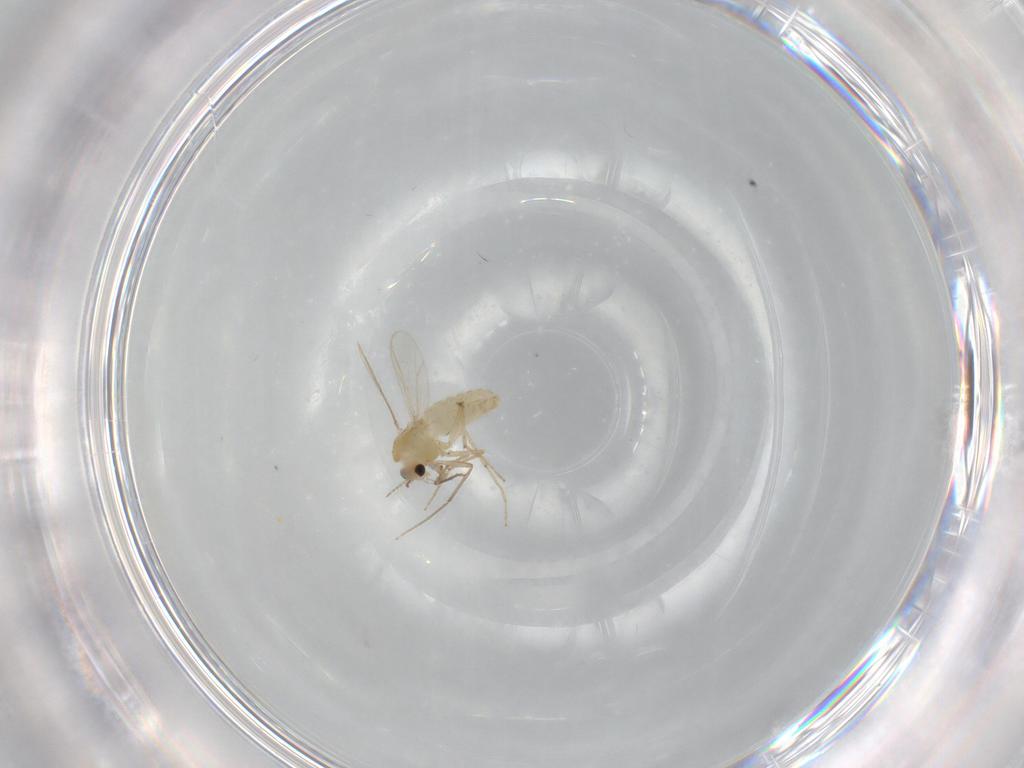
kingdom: Animalia
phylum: Arthropoda
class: Insecta
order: Diptera
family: Chironomidae
